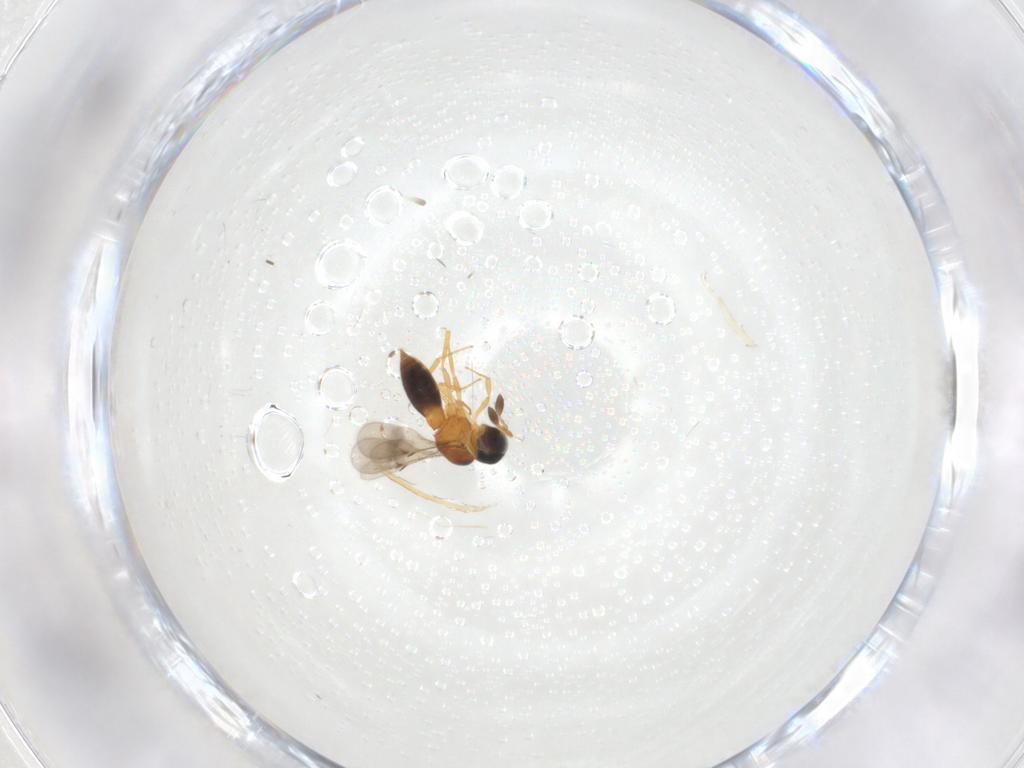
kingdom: Animalia
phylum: Arthropoda
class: Insecta
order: Hymenoptera
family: Scelionidae
